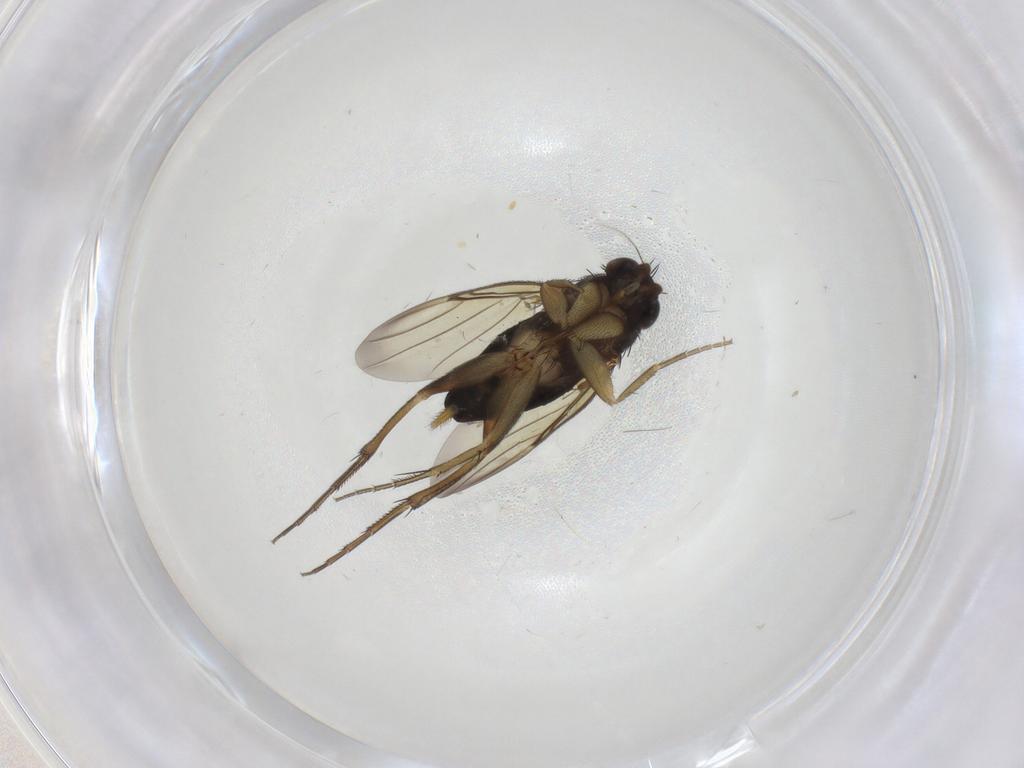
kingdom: Animalia
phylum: Arthropoda
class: Insecta
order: Diptera
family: Phoridae
